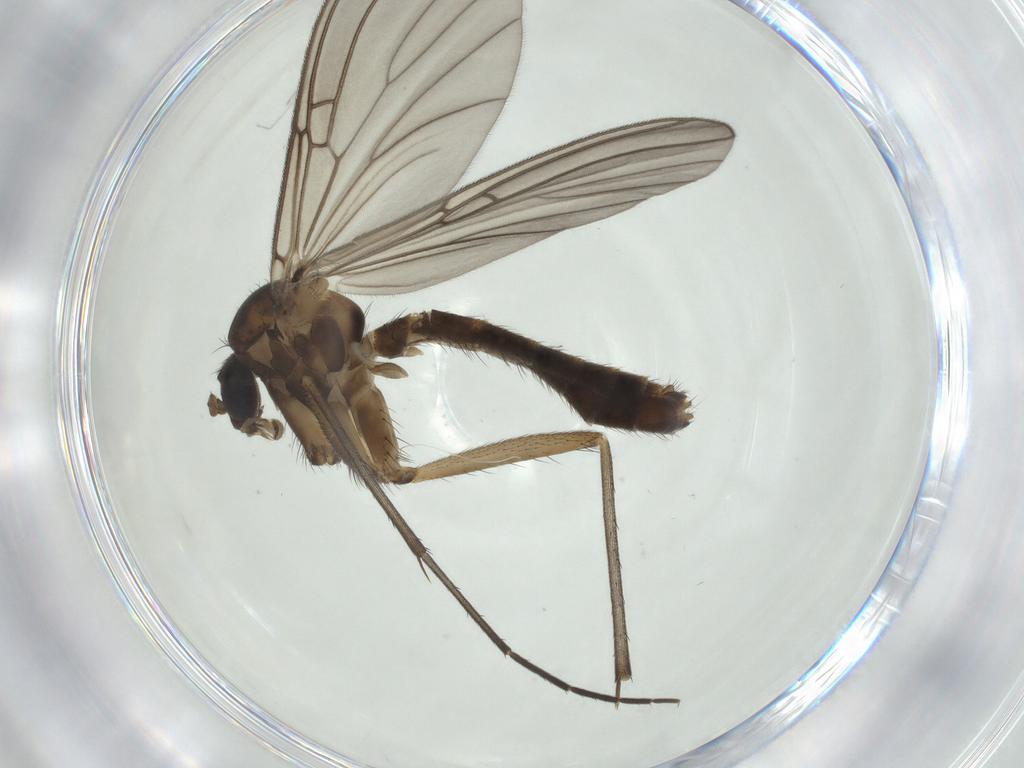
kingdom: Animalia
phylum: Arthropoda
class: Insecta
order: Diptera
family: Mycetophilidae
